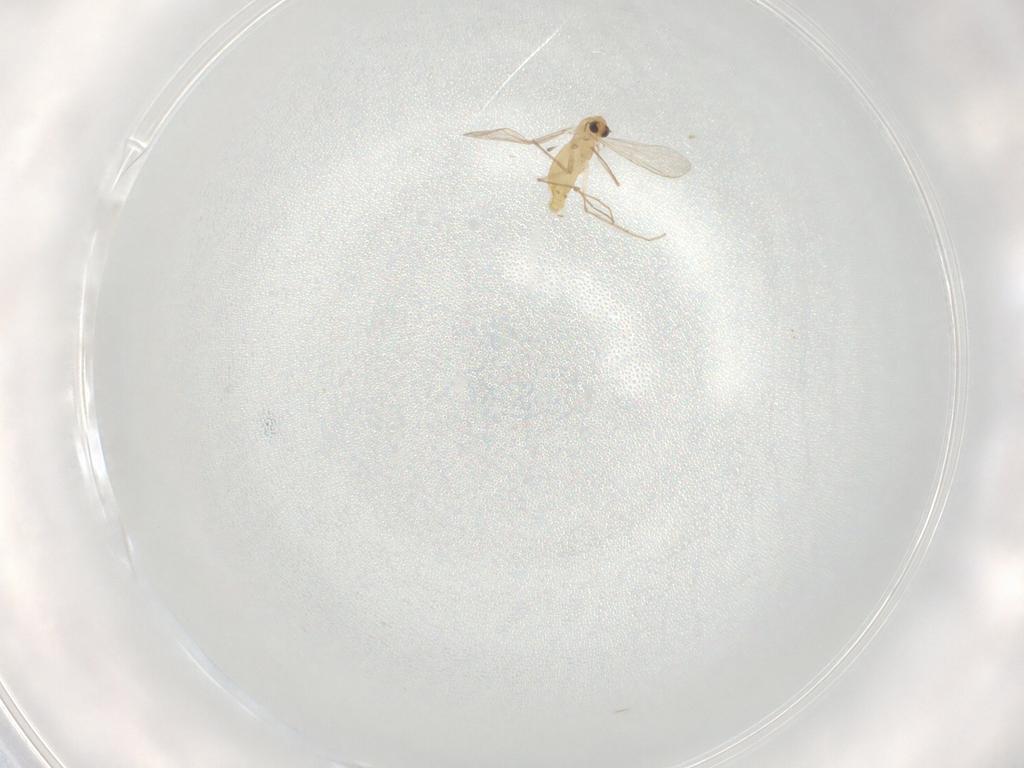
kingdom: Animalia
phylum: Arthropoda
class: Insecta
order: Diptera
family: Chironomidae
